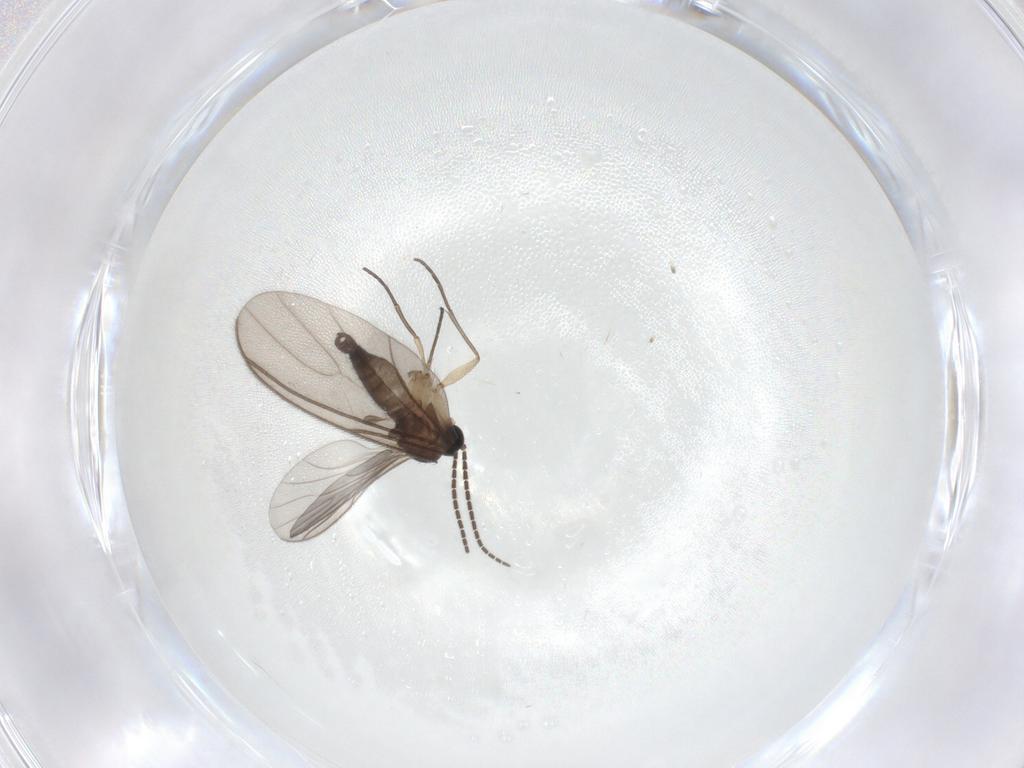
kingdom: Animalia
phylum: Arthropoda
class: Insecta
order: Diptera
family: Sciaridae
